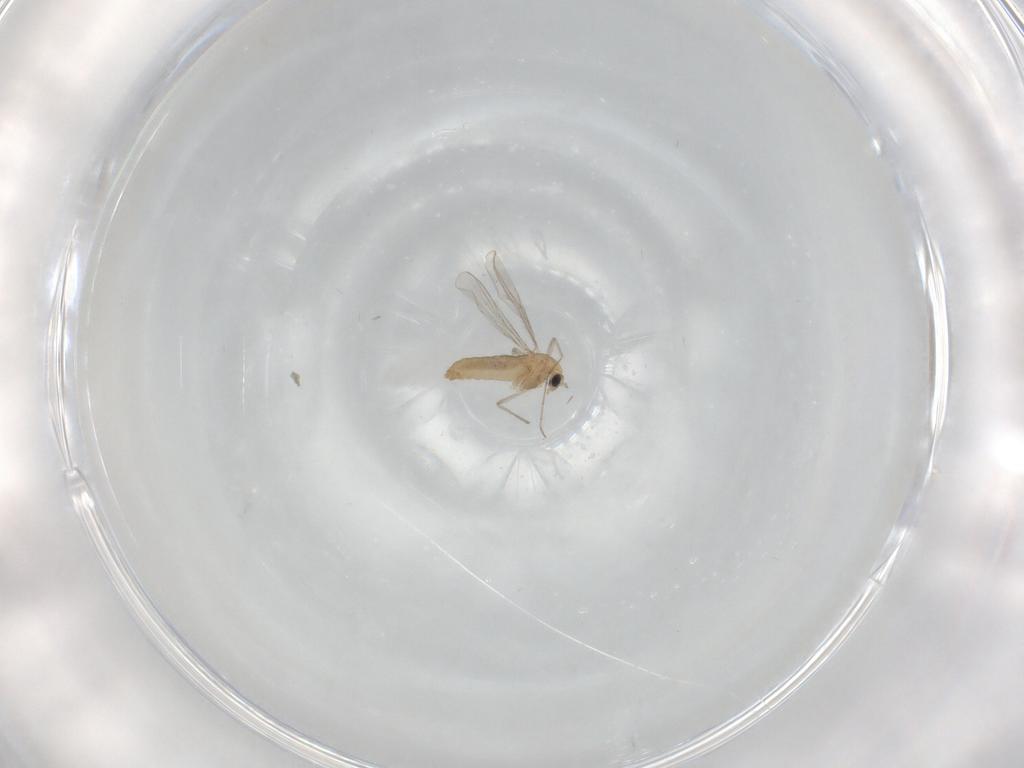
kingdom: Animalia
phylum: Arthropoda
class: Insecta
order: Diptera
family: Chironomidae
